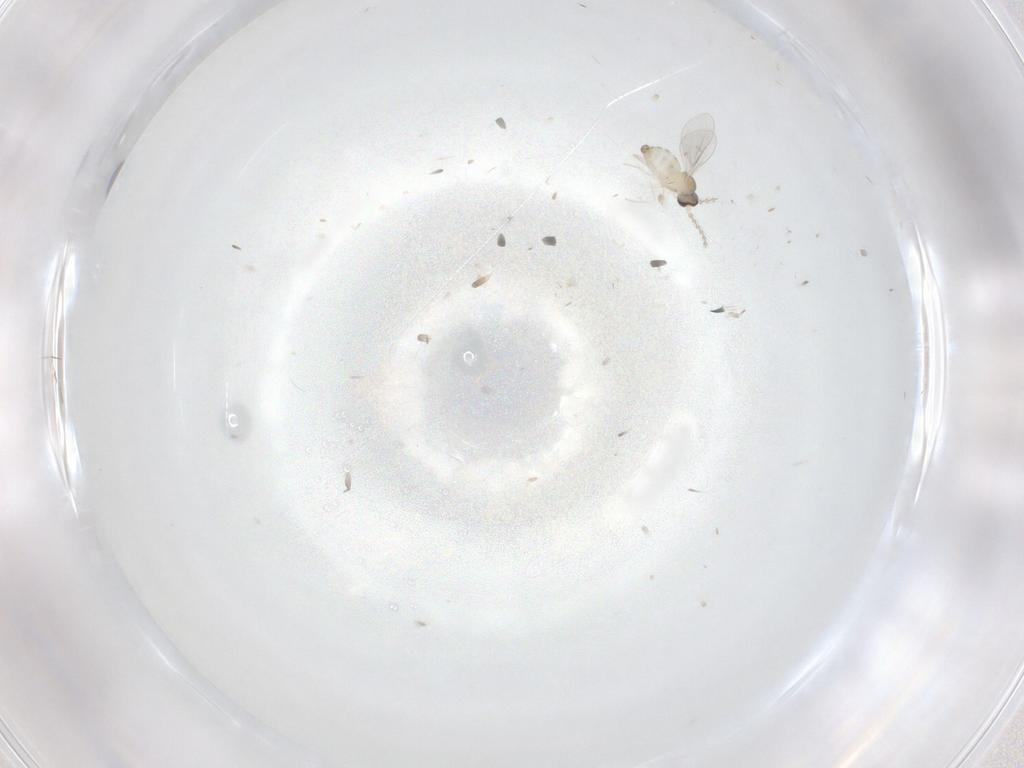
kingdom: Animalia
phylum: Arthropoda
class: Insecta
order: Diptera
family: Cecidomyiidae
